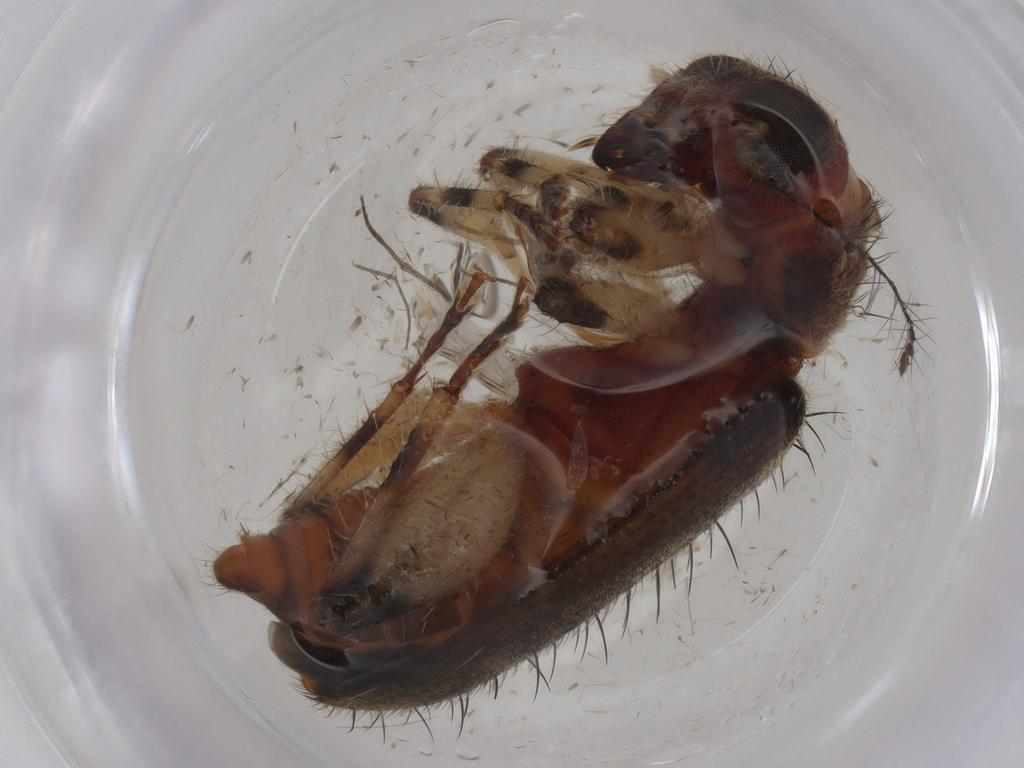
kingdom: Animalia
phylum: Arthropoda
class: Insecta
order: Coleoptera
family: Cleridae
